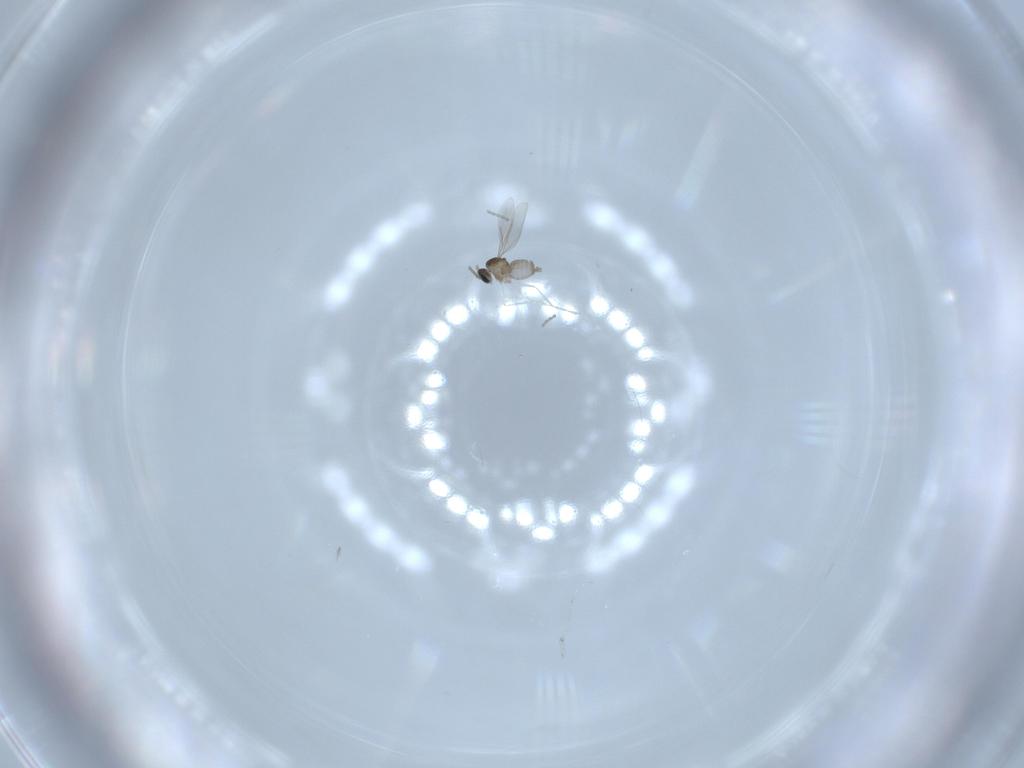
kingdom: Animalia
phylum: Arthropoda
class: Insecta
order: Diptera
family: Cecidomyiidae
